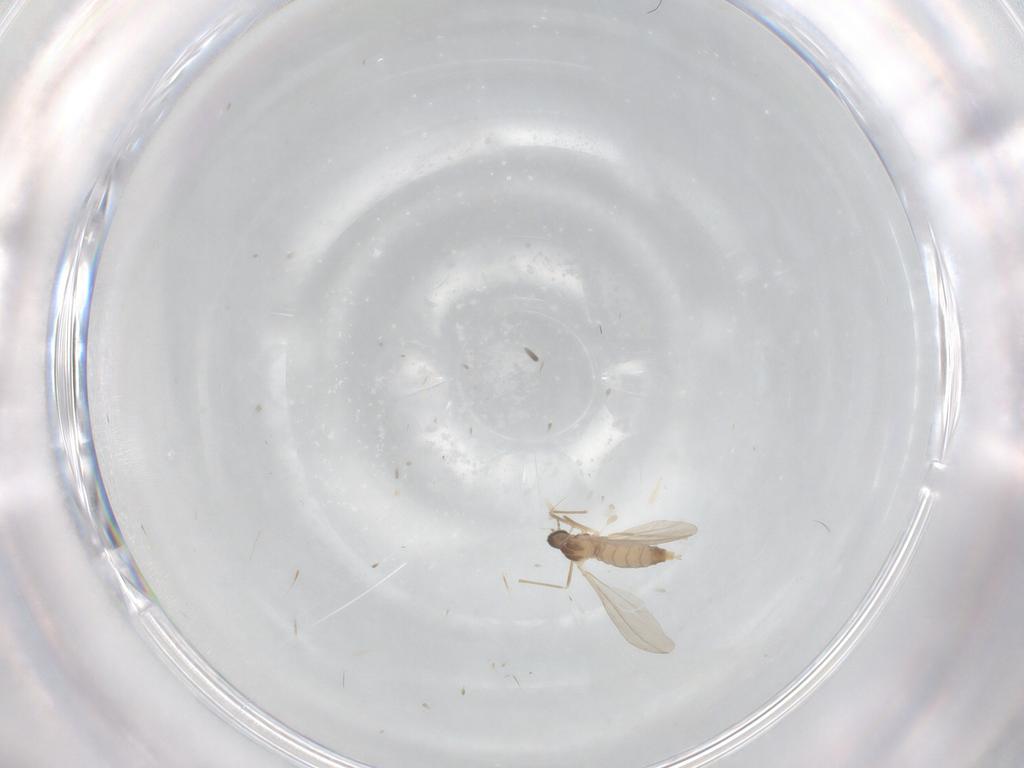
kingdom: Animalia
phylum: Arthropoda
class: Insecta
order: Diptera
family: Cecidomyiidae
